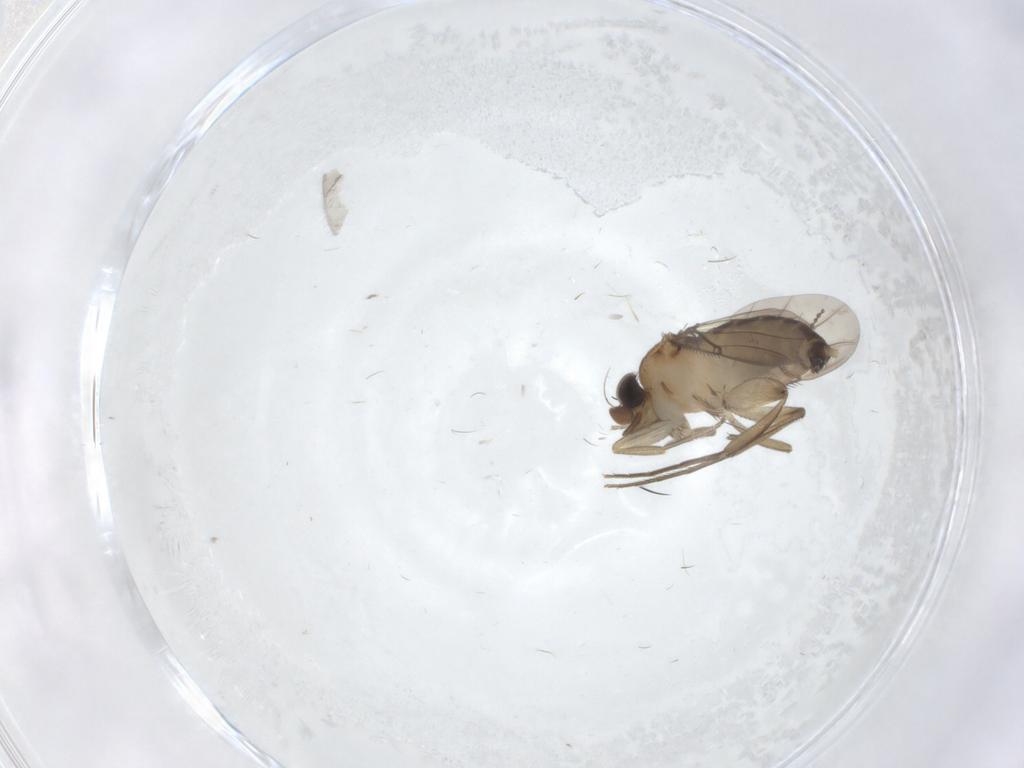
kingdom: Animalia
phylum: Arthropoda
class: Insecta
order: Diptera
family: Phoridae
